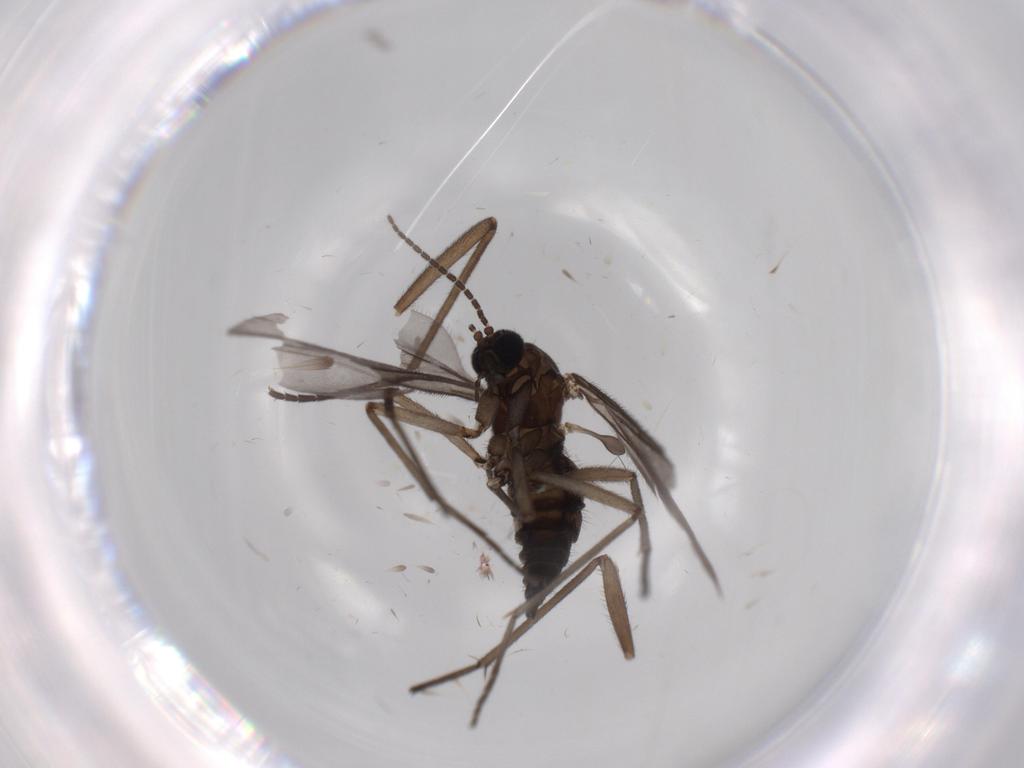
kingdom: Animalia
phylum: Arthropoda
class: Insecta
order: Diptera
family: Sciaridae
